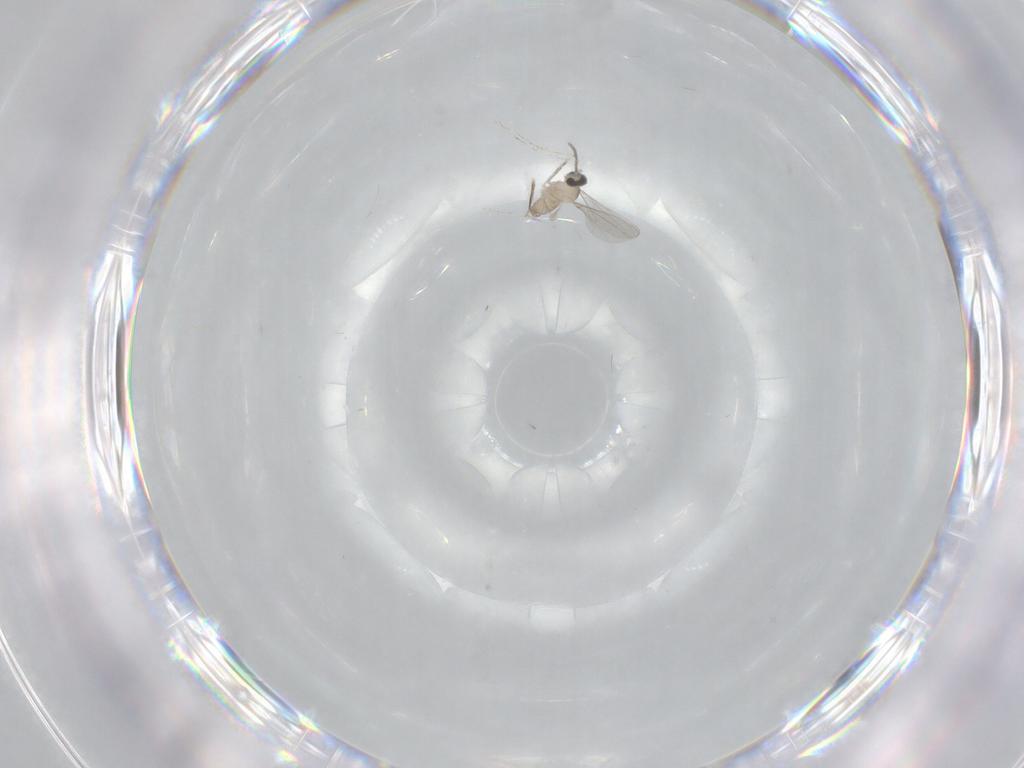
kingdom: Animalia
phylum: Arthropoda
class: Insecta
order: Diptera
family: Cecidomyiidae
